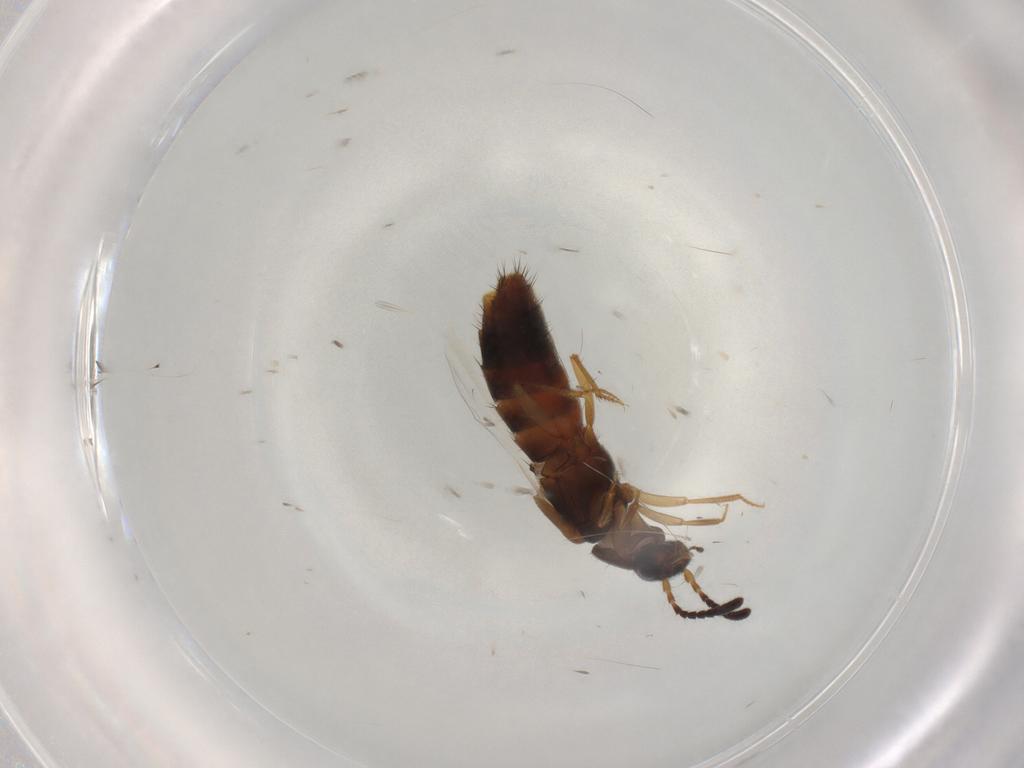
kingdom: Animalia
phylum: Arthropoda
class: Insecta
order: Coleoptera
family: Staphylinidae
